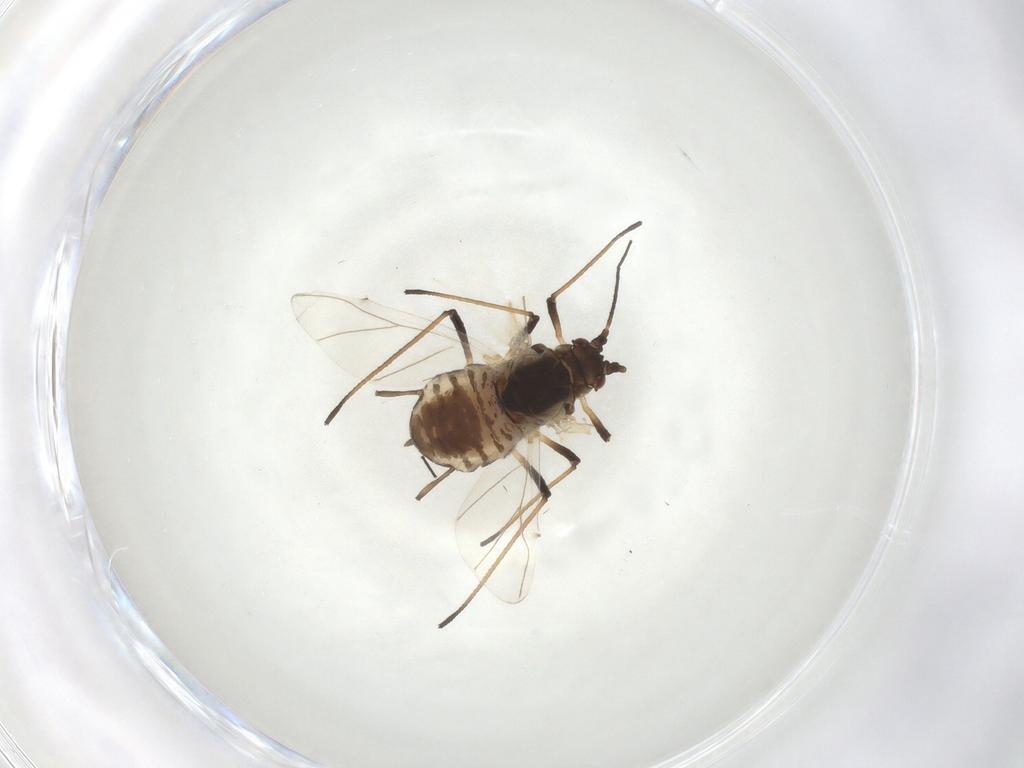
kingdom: Animalia
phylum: Arthropoda
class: Insecta
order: Hemiptera
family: Aphididae
